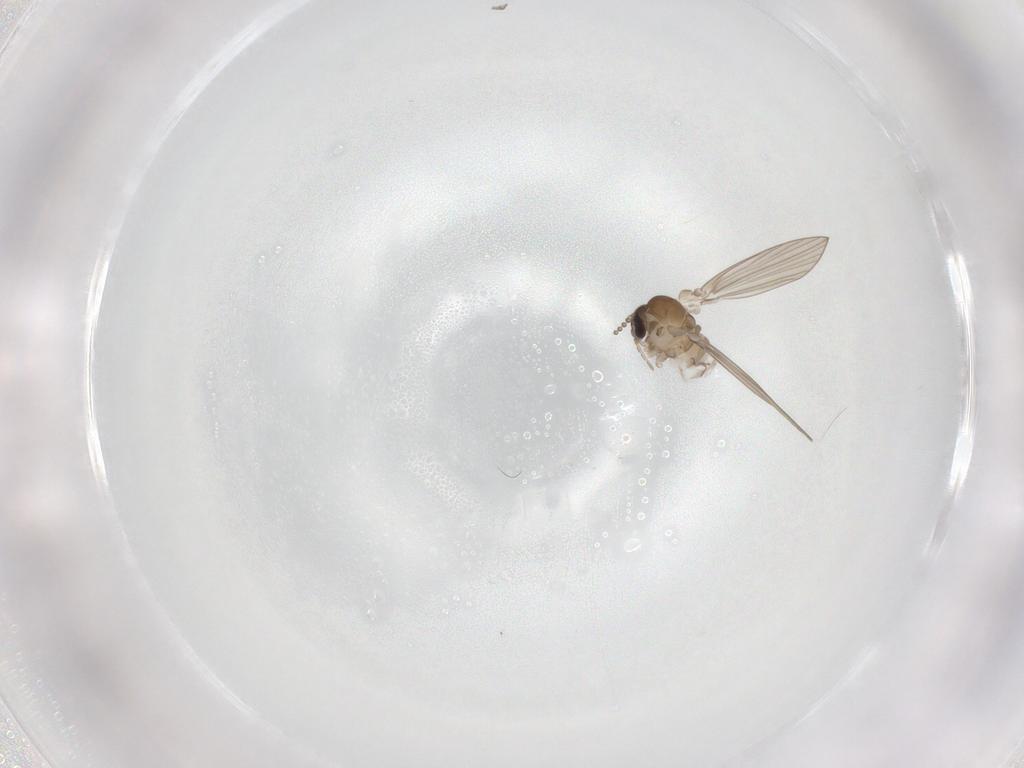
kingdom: Animalia
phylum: Arthropoda
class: Insecta
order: Diptera
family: Psychodidae
